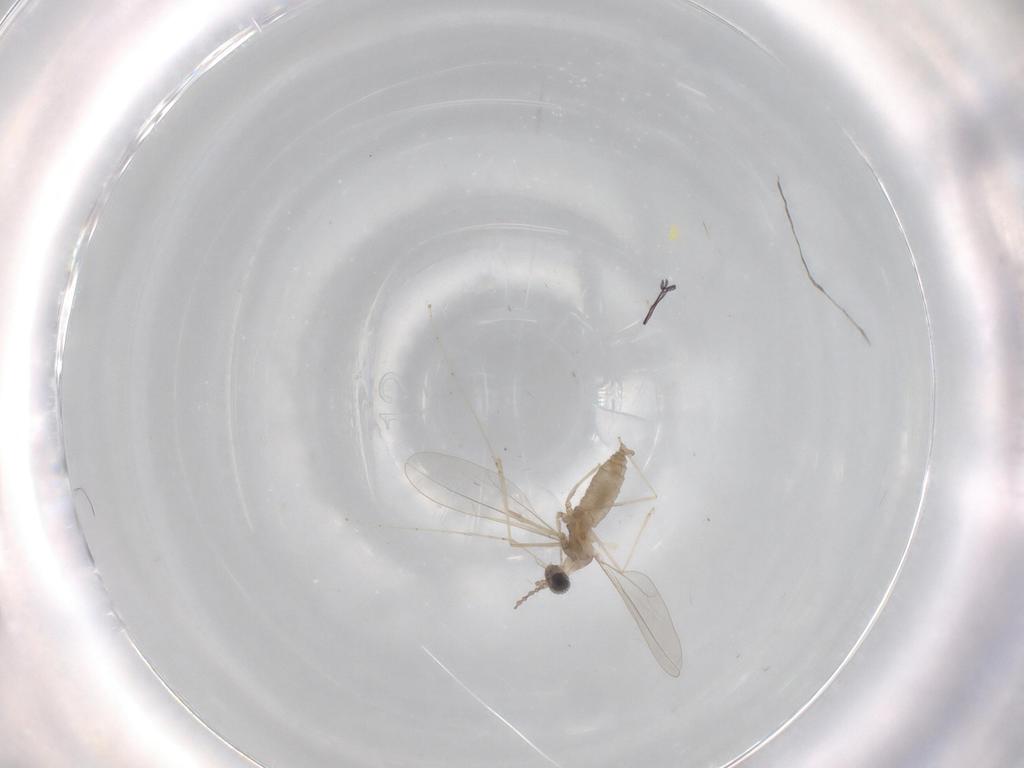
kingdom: Animalia
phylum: Arthropoda
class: Insecta
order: Diptera
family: Cecidomyiidae
